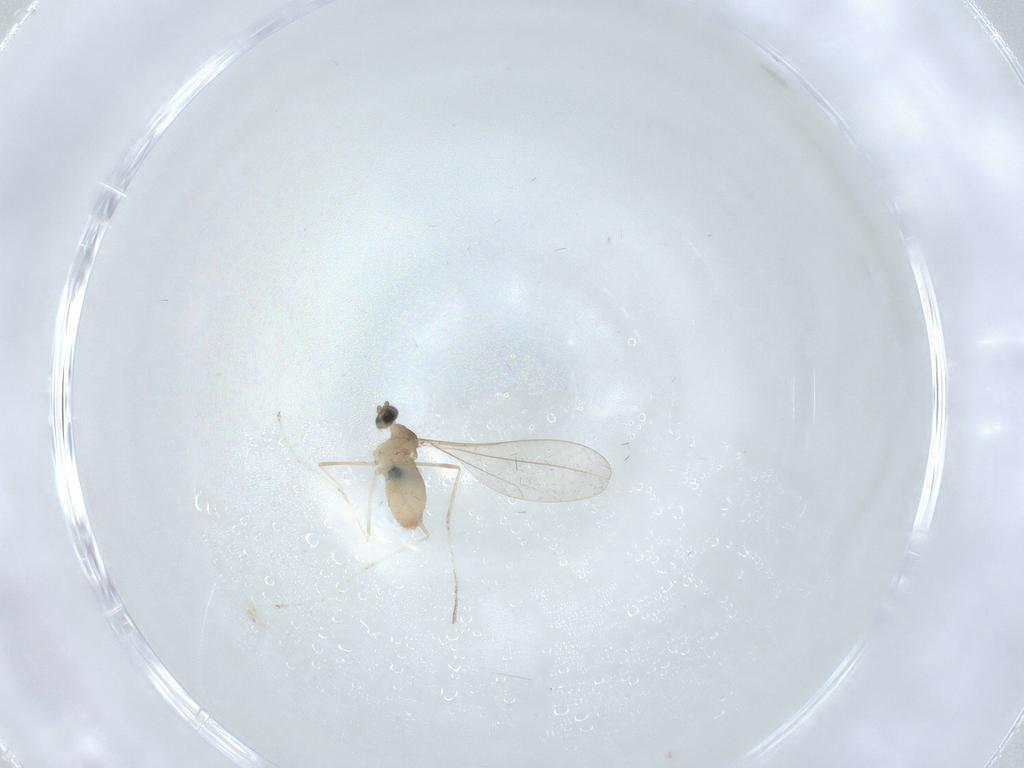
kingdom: Animalia
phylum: Arthropoda
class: Insecta
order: Diptera
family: Cecidomyiidae
